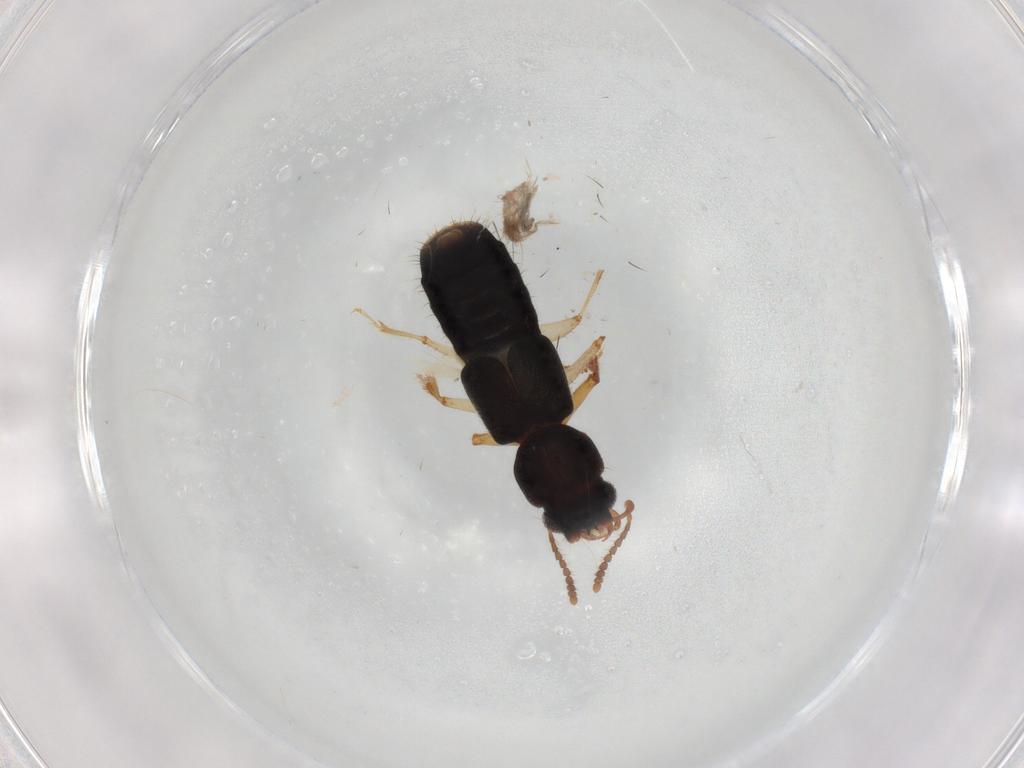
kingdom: Animalia
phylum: Arthropoda
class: Insecta
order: Coleoptera
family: Staphylinidae
